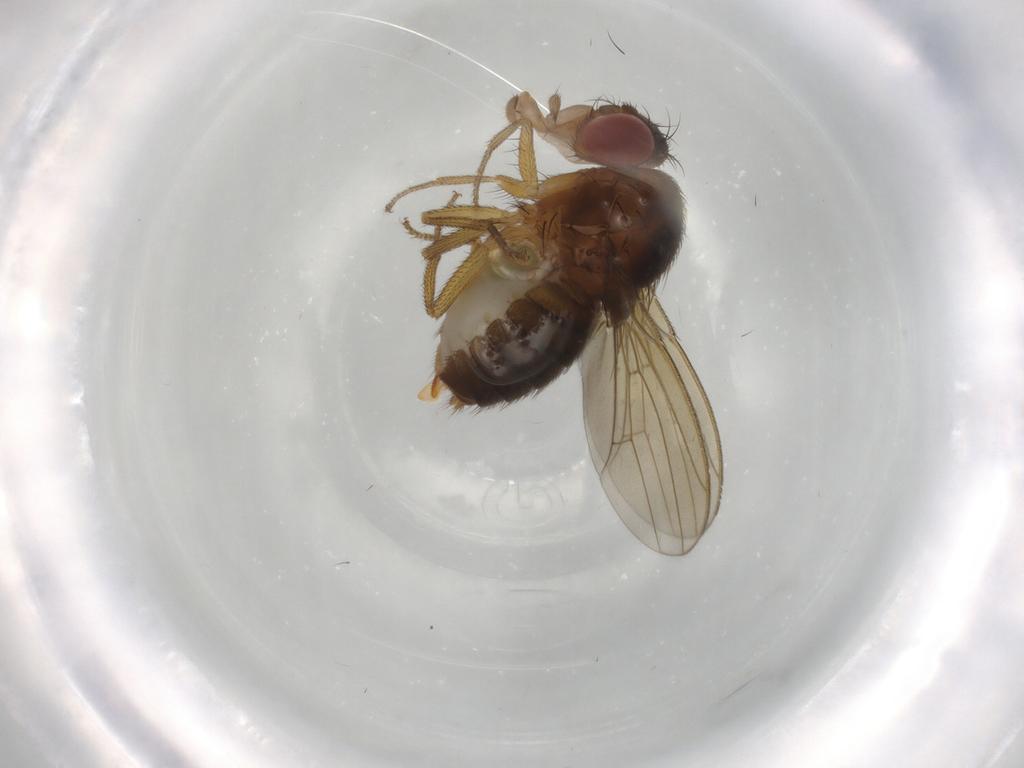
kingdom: Animalia
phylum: Arthropoda
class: Insecta
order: Diptera
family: Drosophilidae
